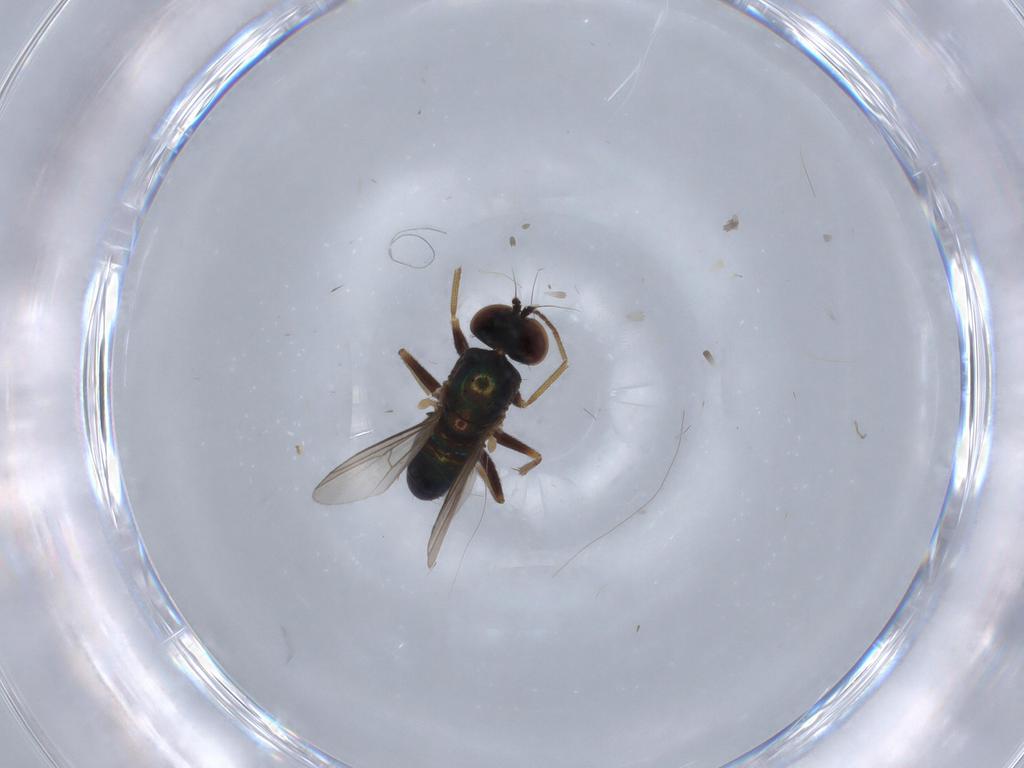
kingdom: Animalia
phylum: Arthropoda
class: Insecta
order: Diptera
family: Dolichopodidae
